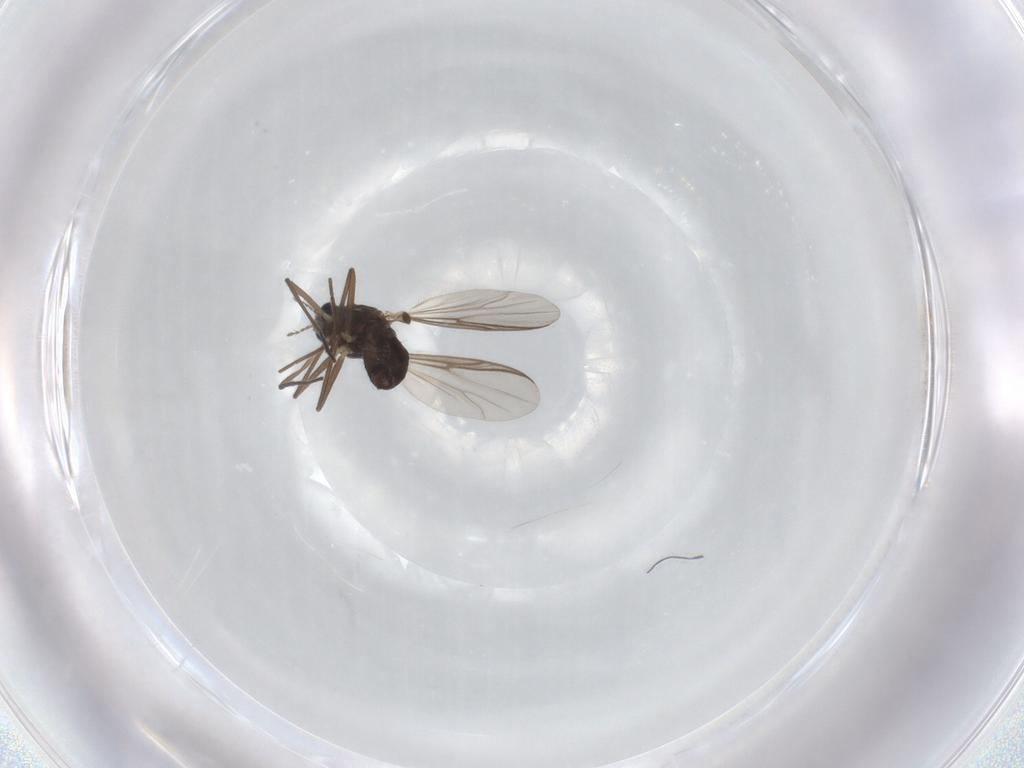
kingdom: Animalia
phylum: Arthropoda
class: Insecta
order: Diptera
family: Chironomidae
